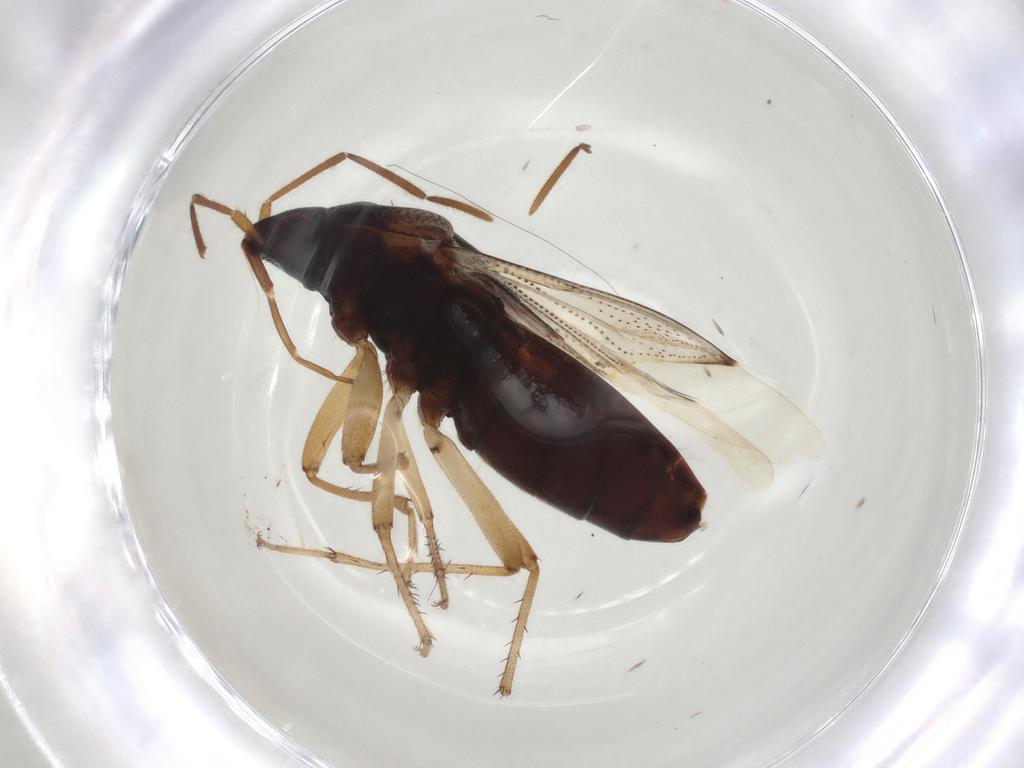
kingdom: Animalia
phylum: Arthropoda
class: Insecta
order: Hemiptera
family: Rhyparochromidae
